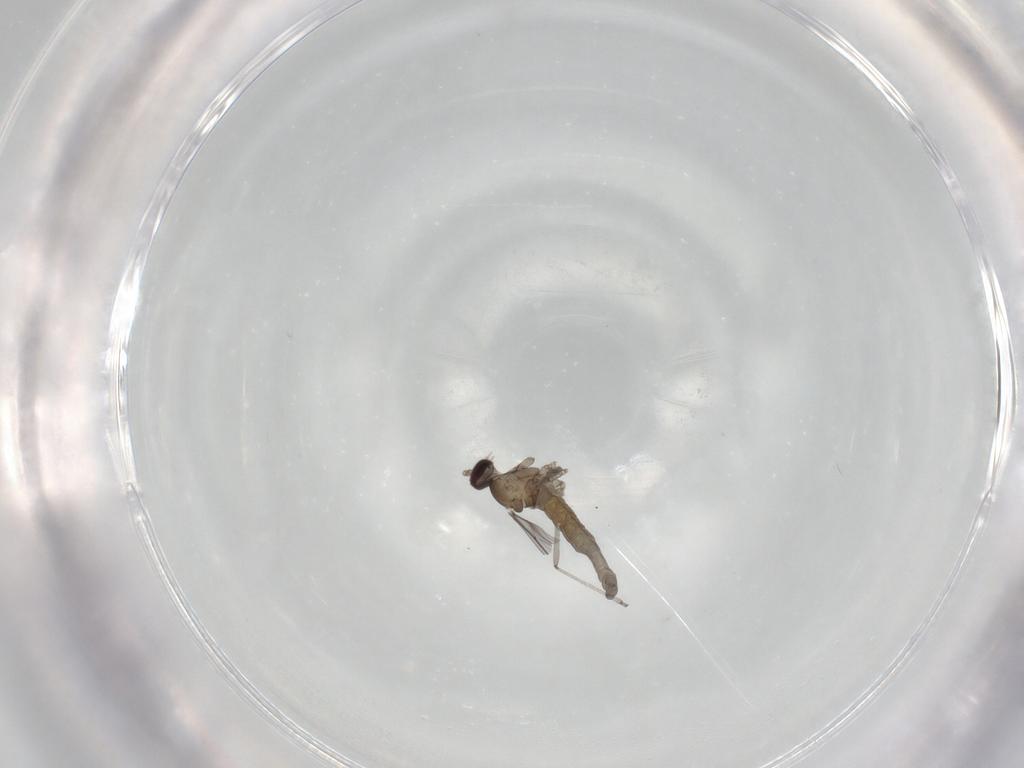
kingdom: Animalia
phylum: Arthropoda
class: Insecta
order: Diptera
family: Cecidomyiidae
